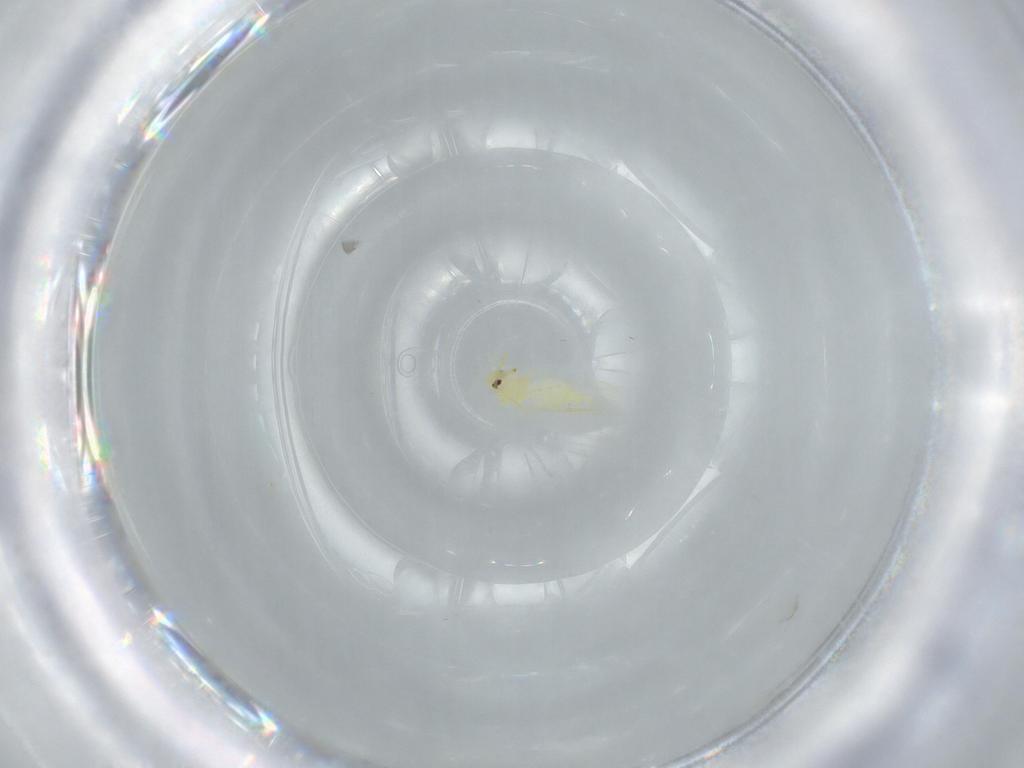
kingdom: Animalia
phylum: Arthropoda
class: Insecta
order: Hemiptera
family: Aleyrodidae
